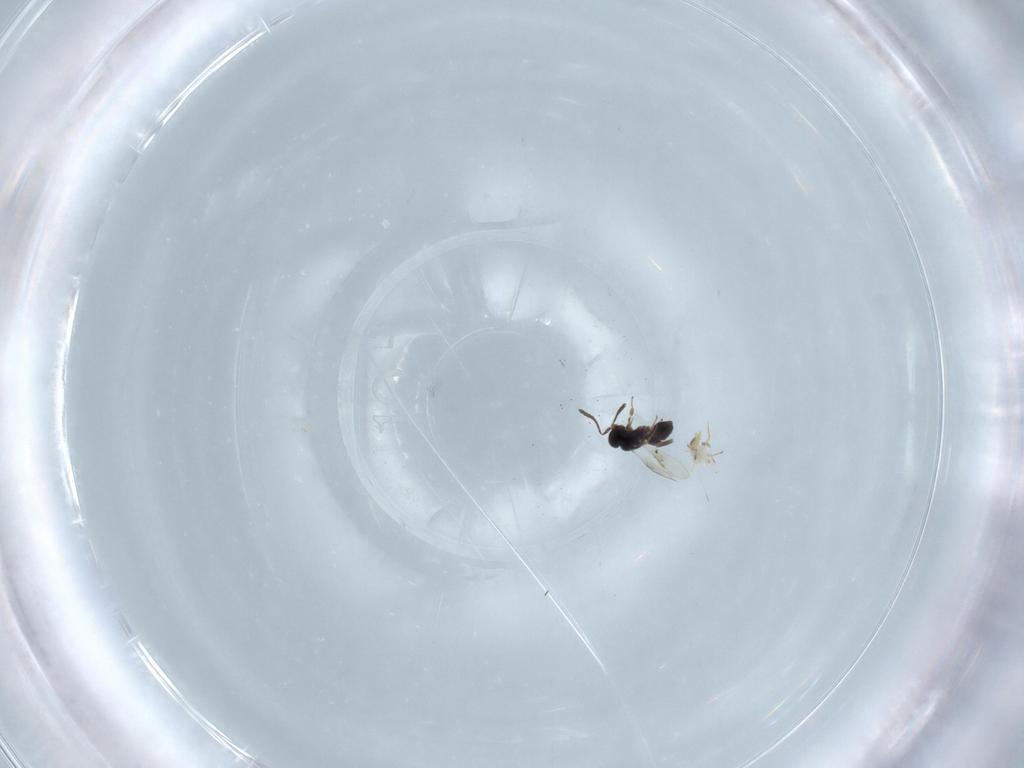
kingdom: Animalia
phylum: Arthropoda
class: Insecta
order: Hymenoptera
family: Scelionidae
